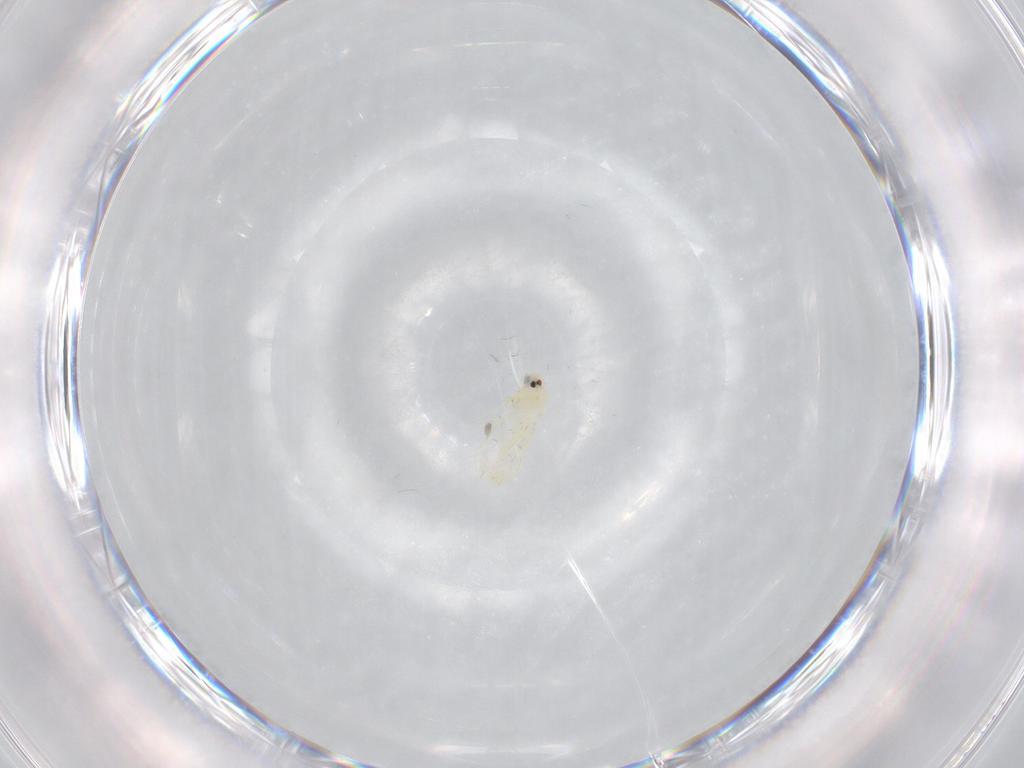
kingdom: Animalia
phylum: Arthropoda
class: Insecta
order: Hemiptera
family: Aleyrodidae
